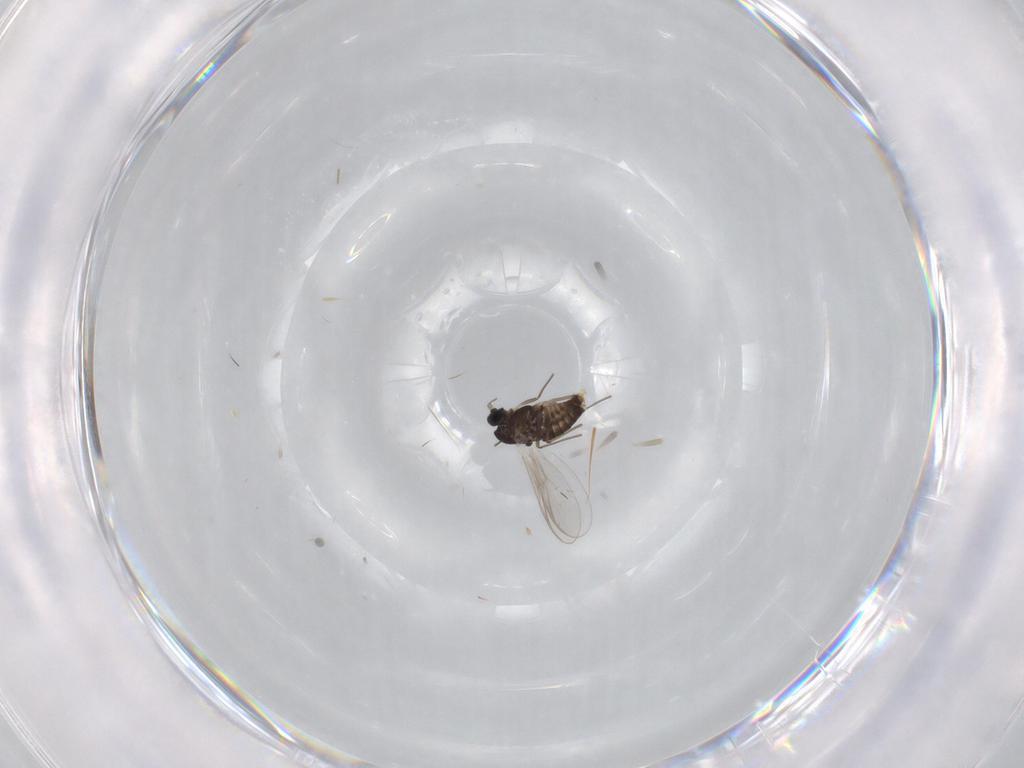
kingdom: Animalia
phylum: Arthropoda
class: Insecta
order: Diptera
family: Chironomidae
